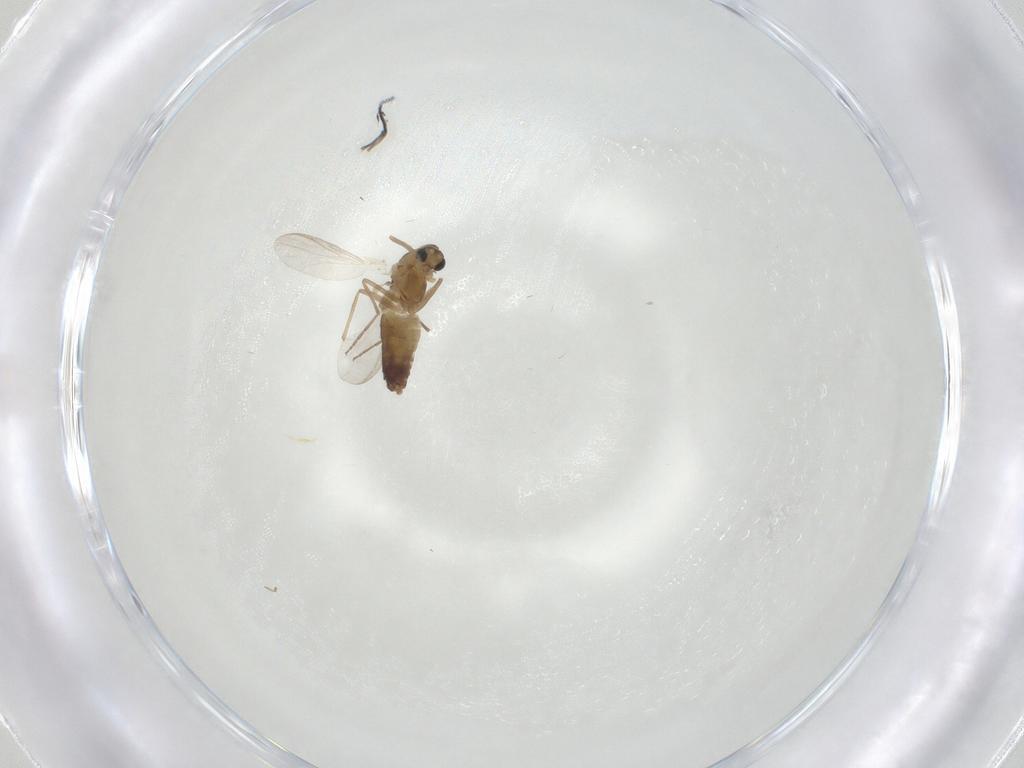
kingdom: Animalia
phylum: Arthropoda
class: Insecta
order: Diptera
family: Chironomidae
